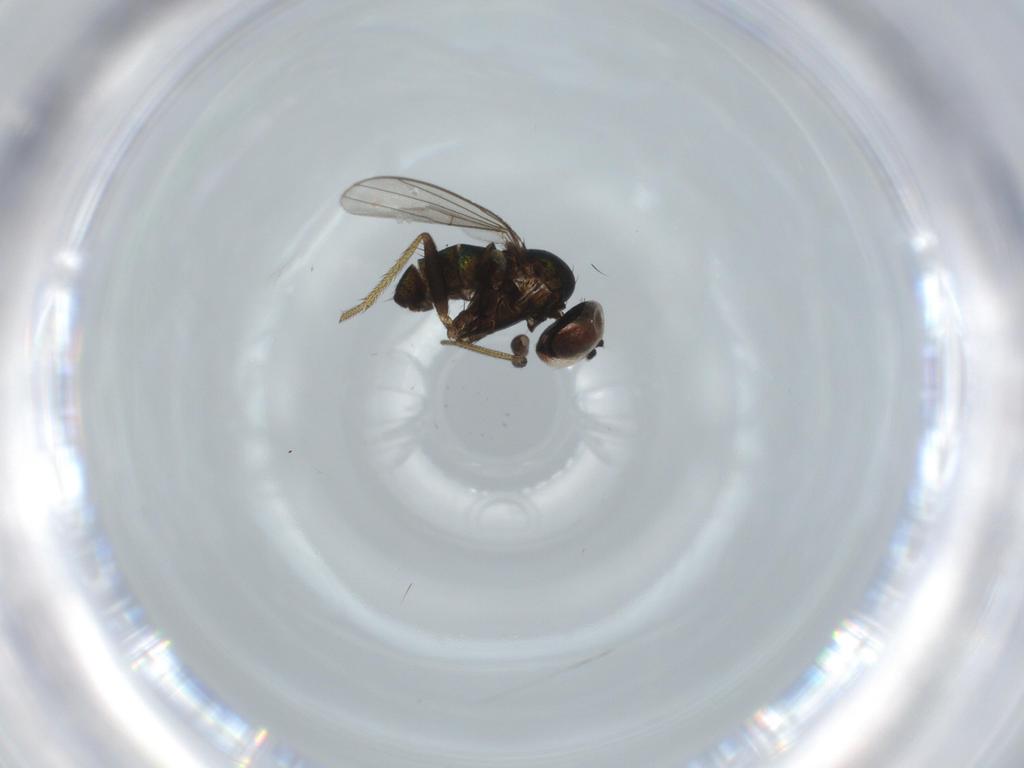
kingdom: Animalia
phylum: Arthropoda
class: Insecta
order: Diptera
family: Dolichopodidae
